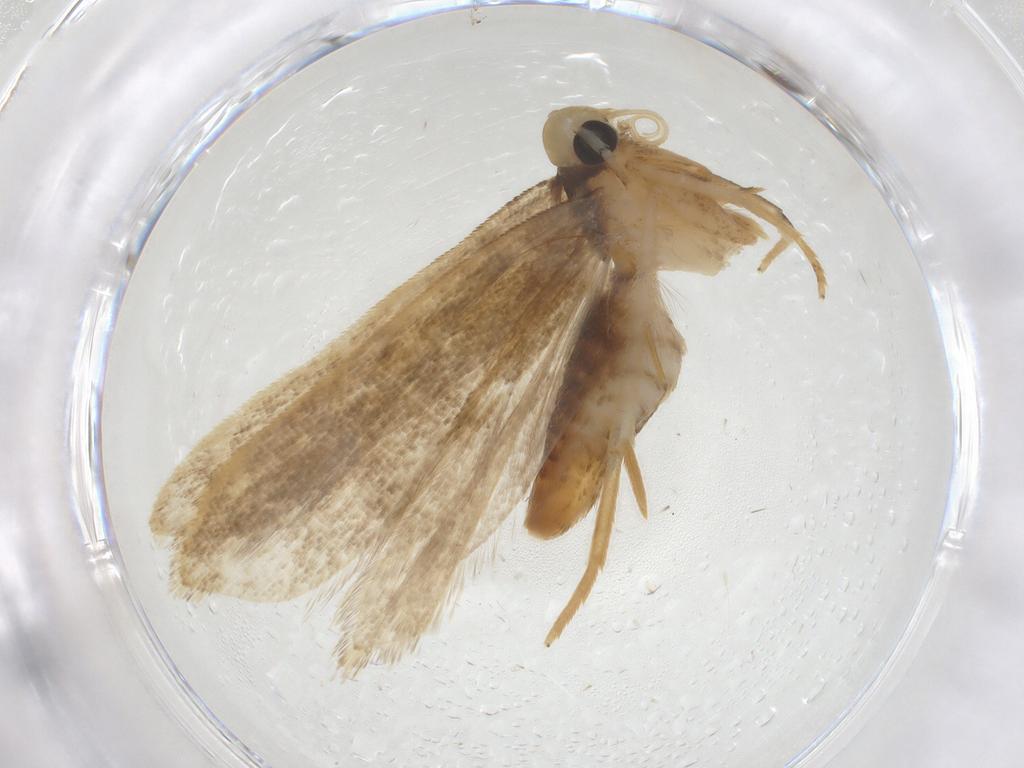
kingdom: Animalia
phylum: Arthropoda
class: Insecta
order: Lepidoptera
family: Gelechiidae
